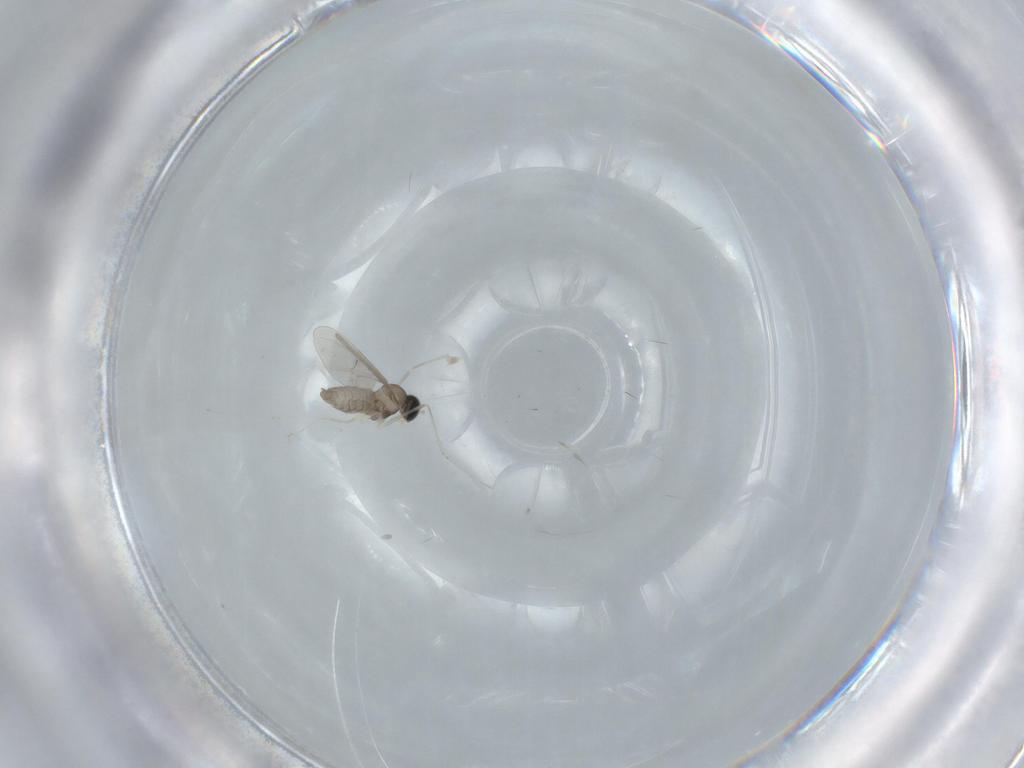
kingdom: Animalia
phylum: Arthropoda
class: Insecta
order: Diptera
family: Cecidomyiidae
